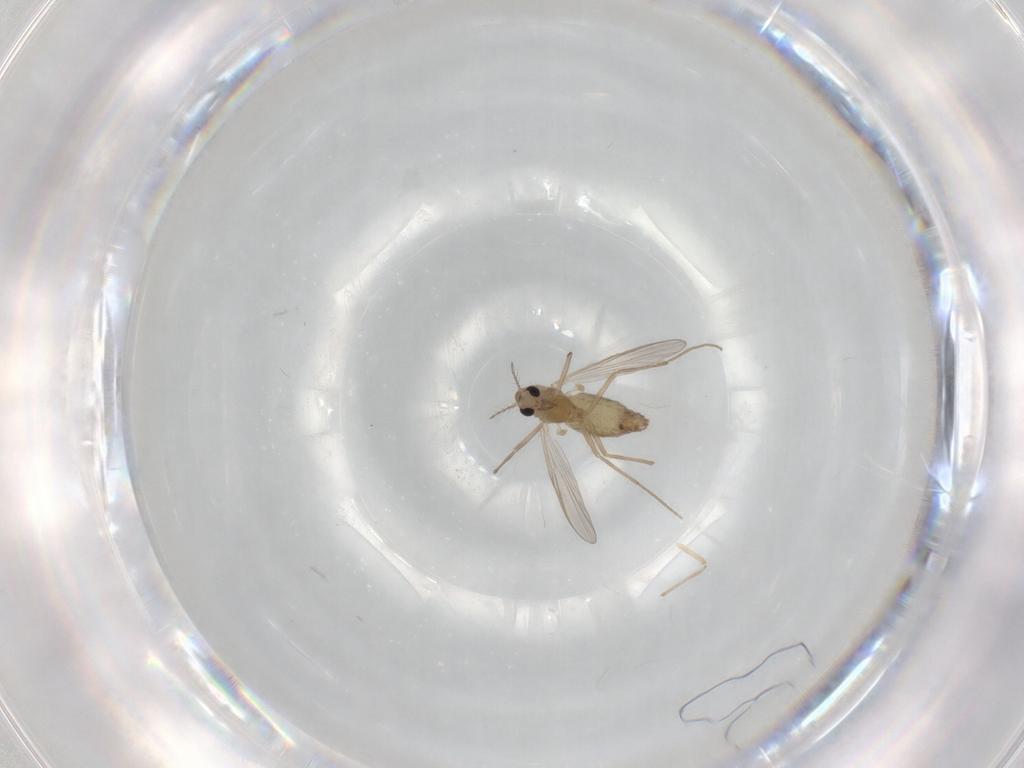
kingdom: Animalia
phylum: Arthropoda
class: Insecta
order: Diptera
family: Chironomidae
